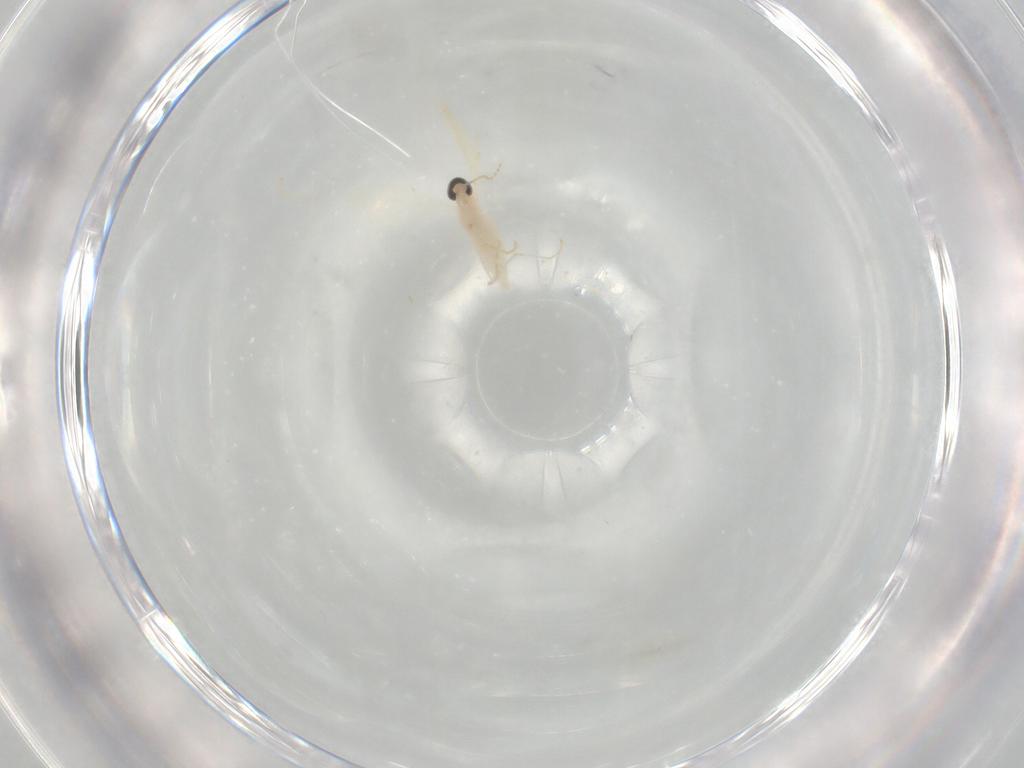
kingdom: Animalia
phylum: Arthropoda
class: Insecta
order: Diptera
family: Cecidomyiidae
